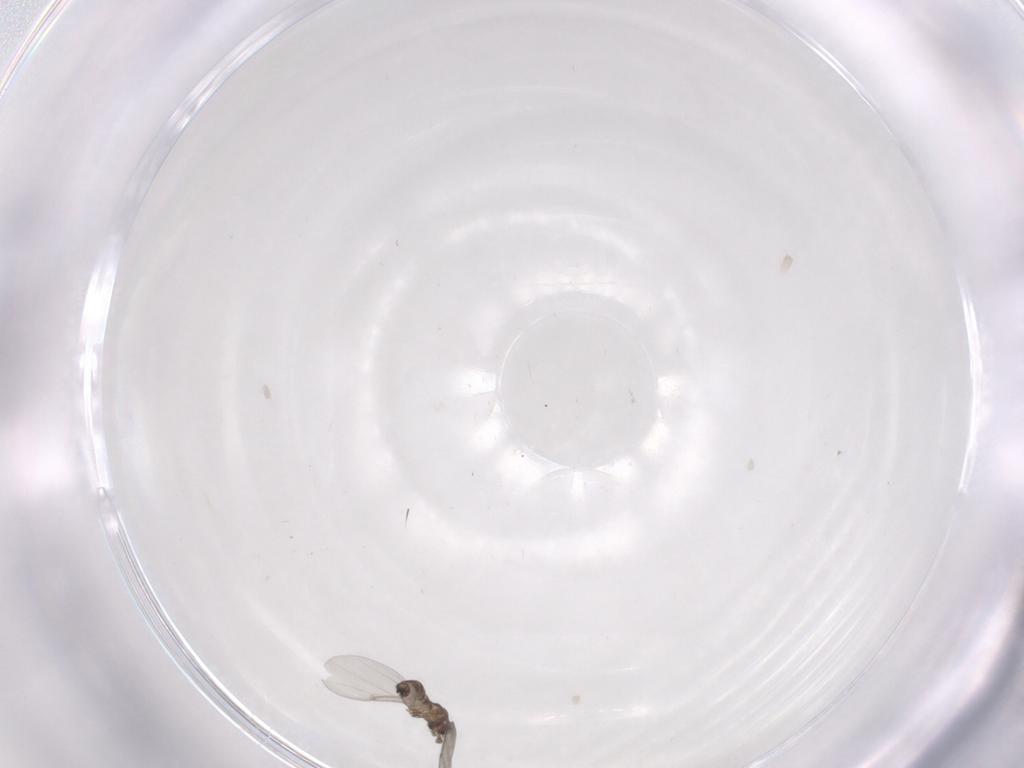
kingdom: Animalia
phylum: Arthropoda
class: Insecta
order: Diptera
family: Phoridae
